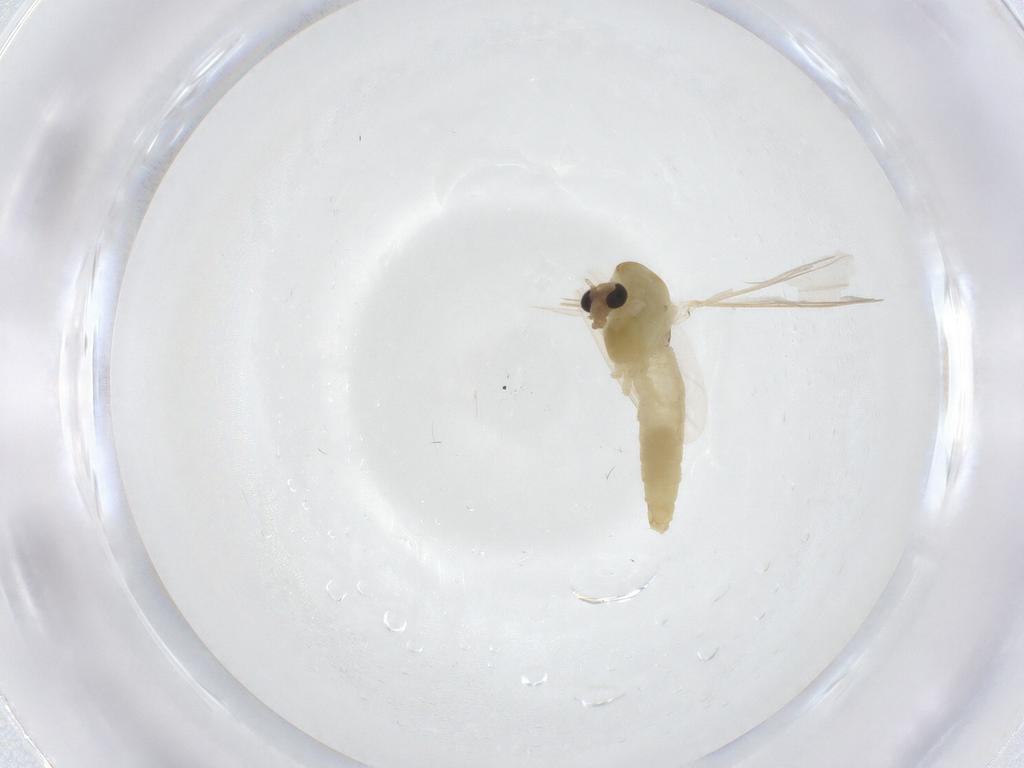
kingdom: Animalia
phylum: Arthropoda
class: Insecta
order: Diptera
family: Chironomidae
